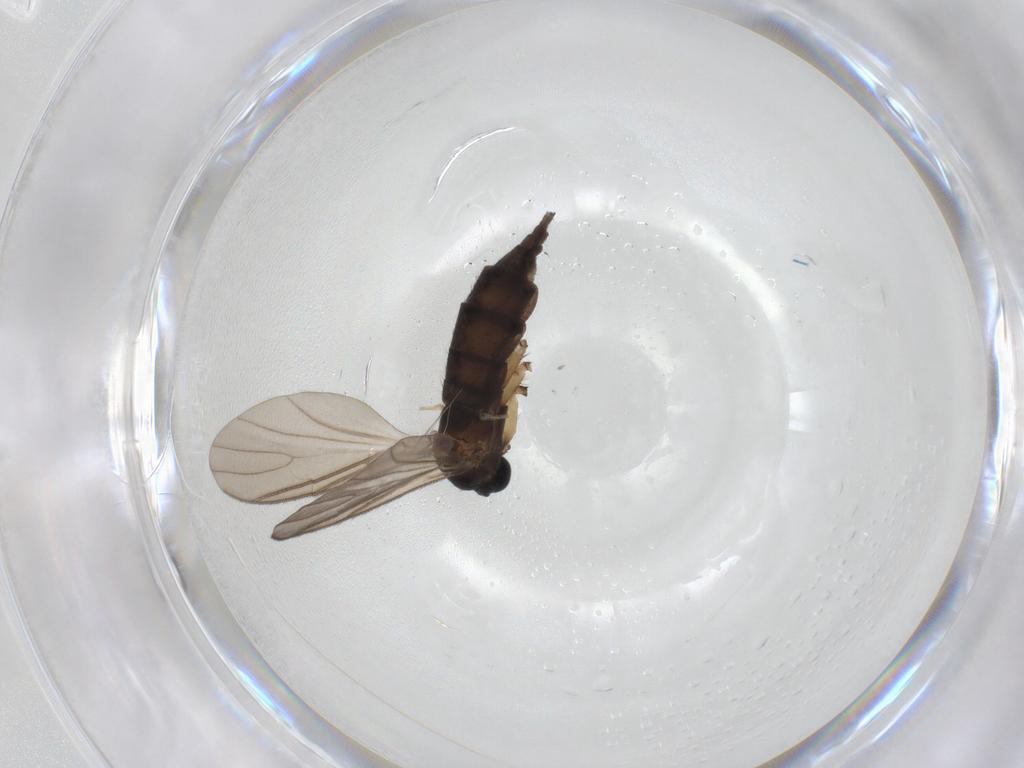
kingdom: Animalia
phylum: Arthropoda
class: Insecta
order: Diptera
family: Sciaridae
